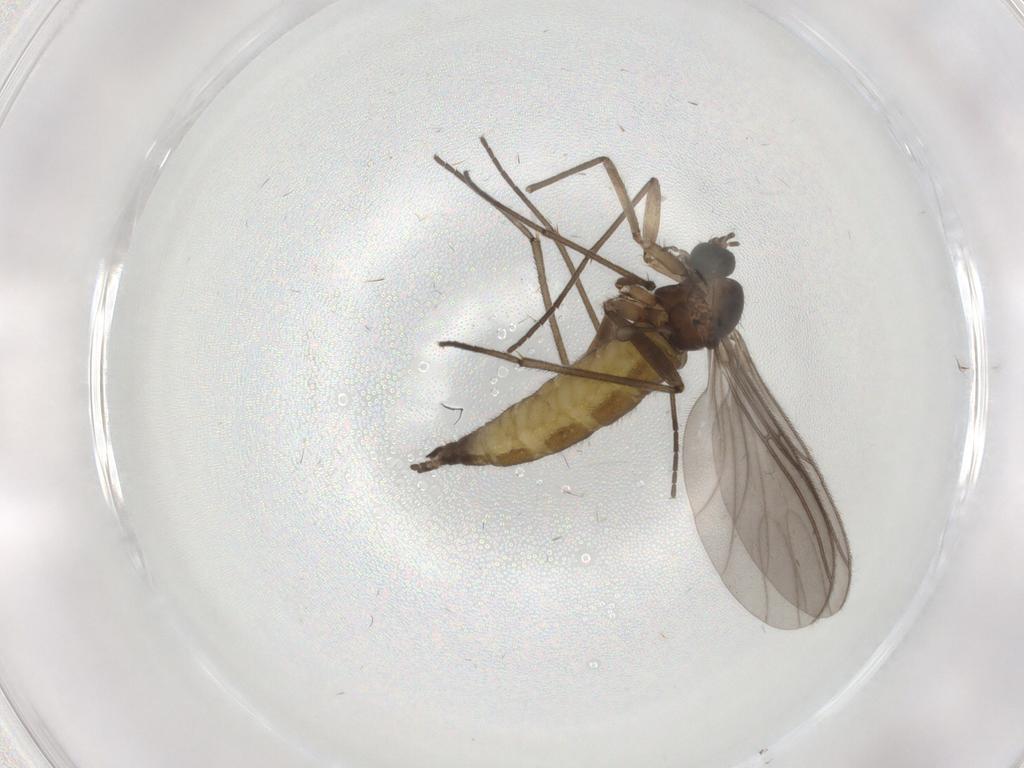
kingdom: Animalia
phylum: Arthropoda
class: Insecta
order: Diptera
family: Sciaridae
